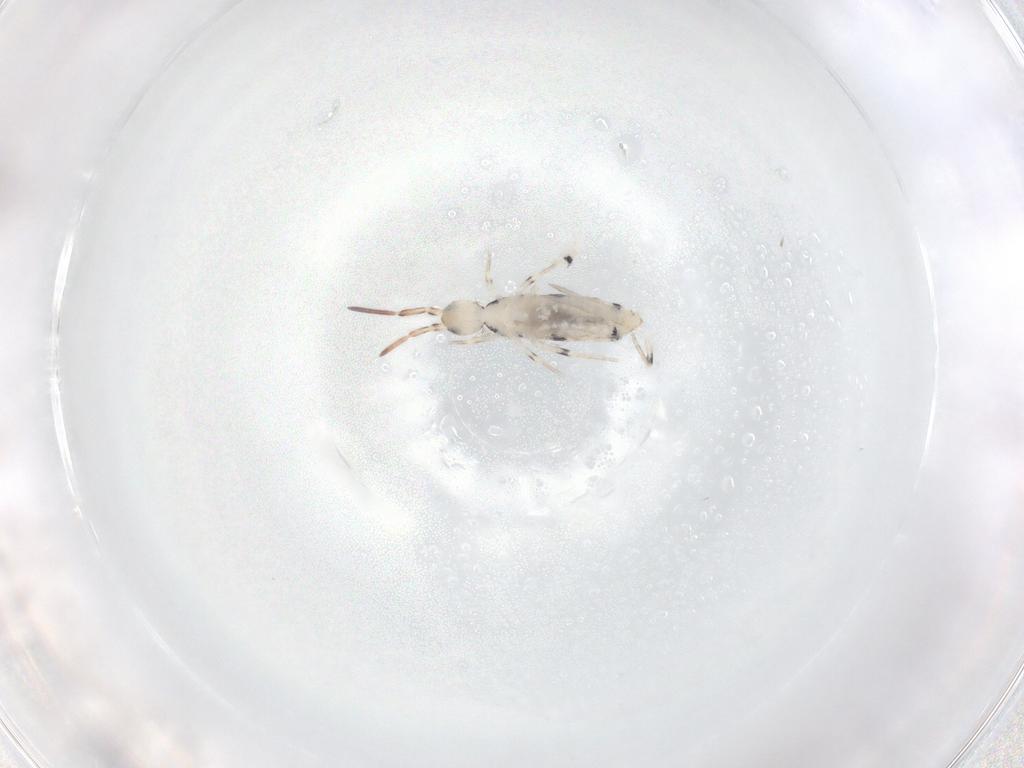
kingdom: Animalia
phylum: Arthropoda
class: Collembola
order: Entomobryomorpha
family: Entomobryidae
